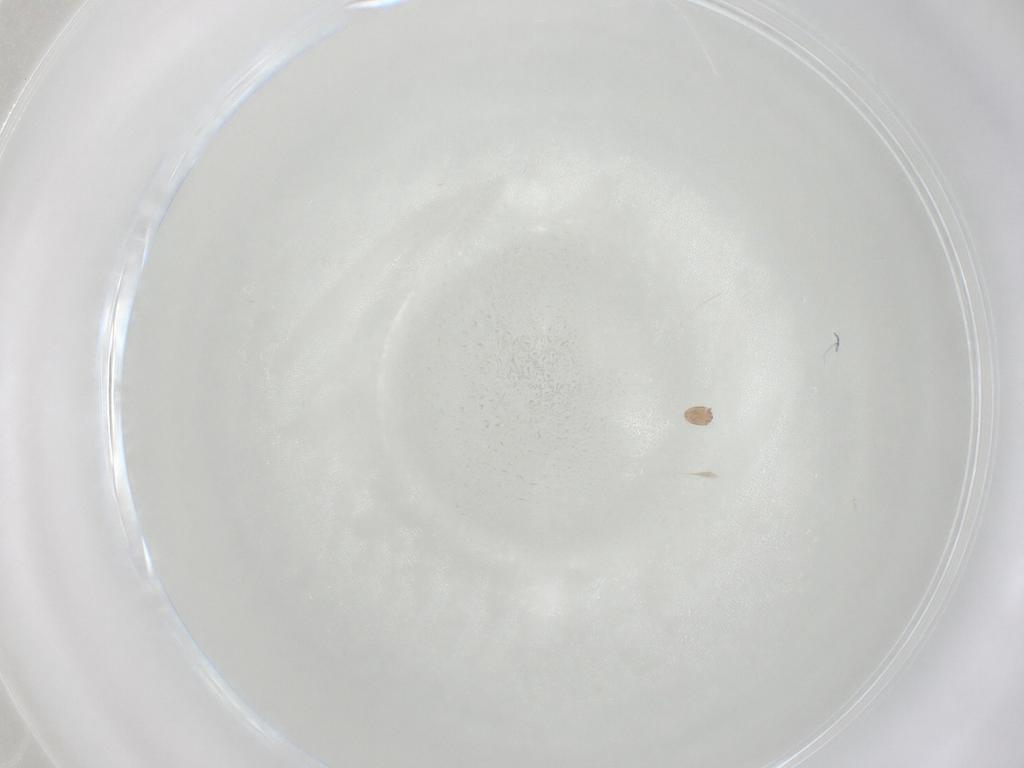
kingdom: Animalia
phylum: Arthropoda
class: Arachnida
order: Sarcoptiformes
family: Hemisarcoptidae
